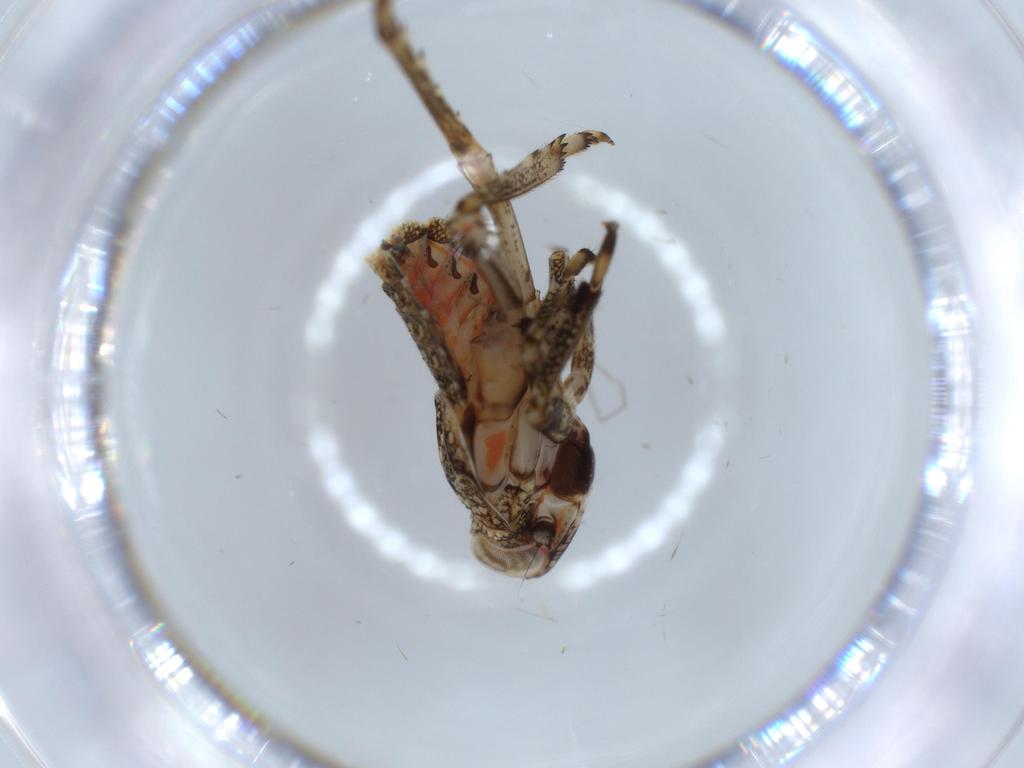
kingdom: Animalia
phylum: Arthropoda
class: Insecta
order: Hemiptera
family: Issidae
